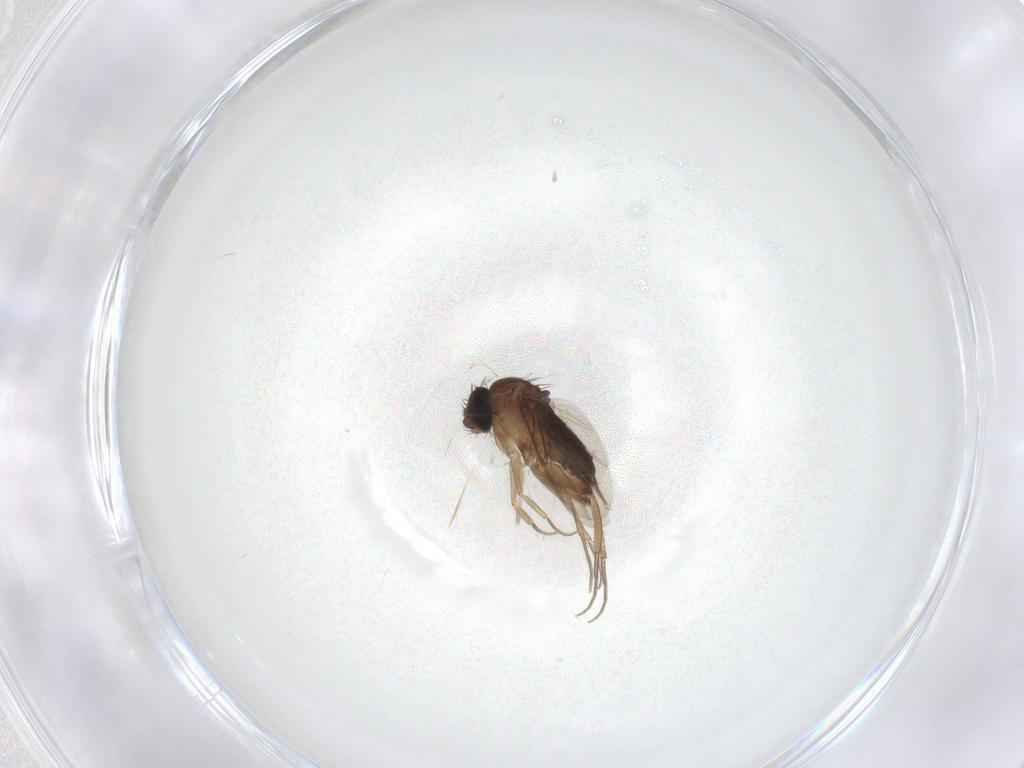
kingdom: Animalia
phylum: Arthropoda
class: Insecta
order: Diptera
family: Phoridae
